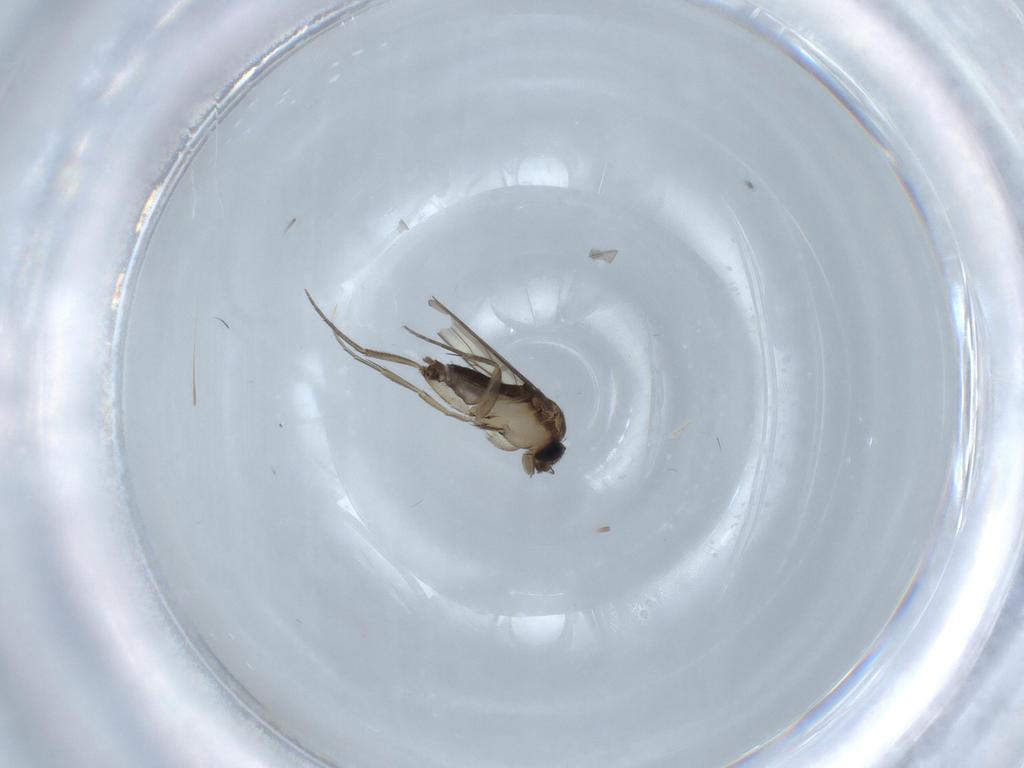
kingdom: Animalia
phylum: Arthropoda
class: Insecta
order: Diptera
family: Phoridae
